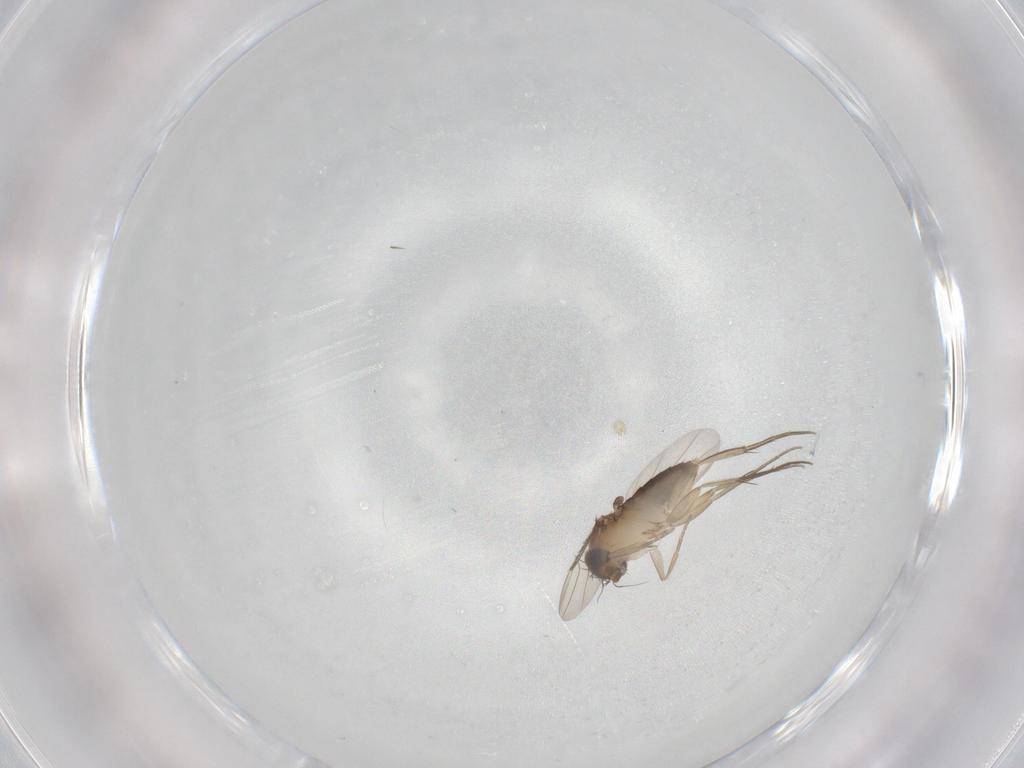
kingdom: Animalia
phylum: Arthropoda
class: Insecta
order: Diptera
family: Phoridae
